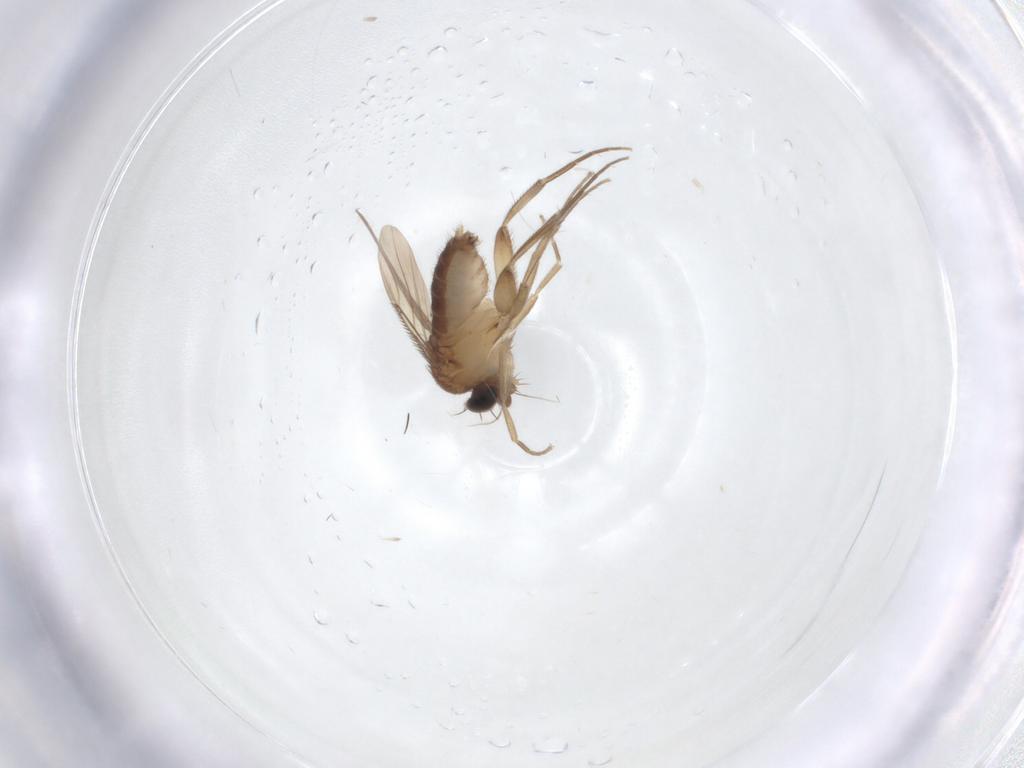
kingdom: Animalia
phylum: Arthropoda
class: Insecta
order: Diptera
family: Phoridae
